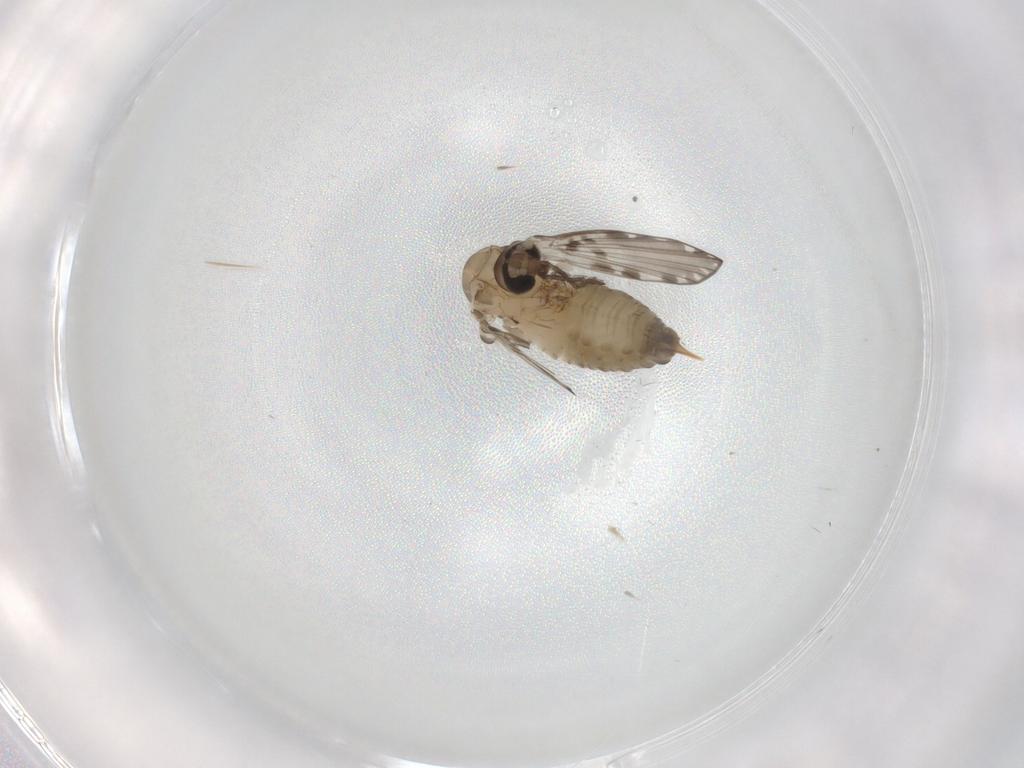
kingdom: Animalia
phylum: Arthropoda
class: Insecta
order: Diptera
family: Psychodidae
